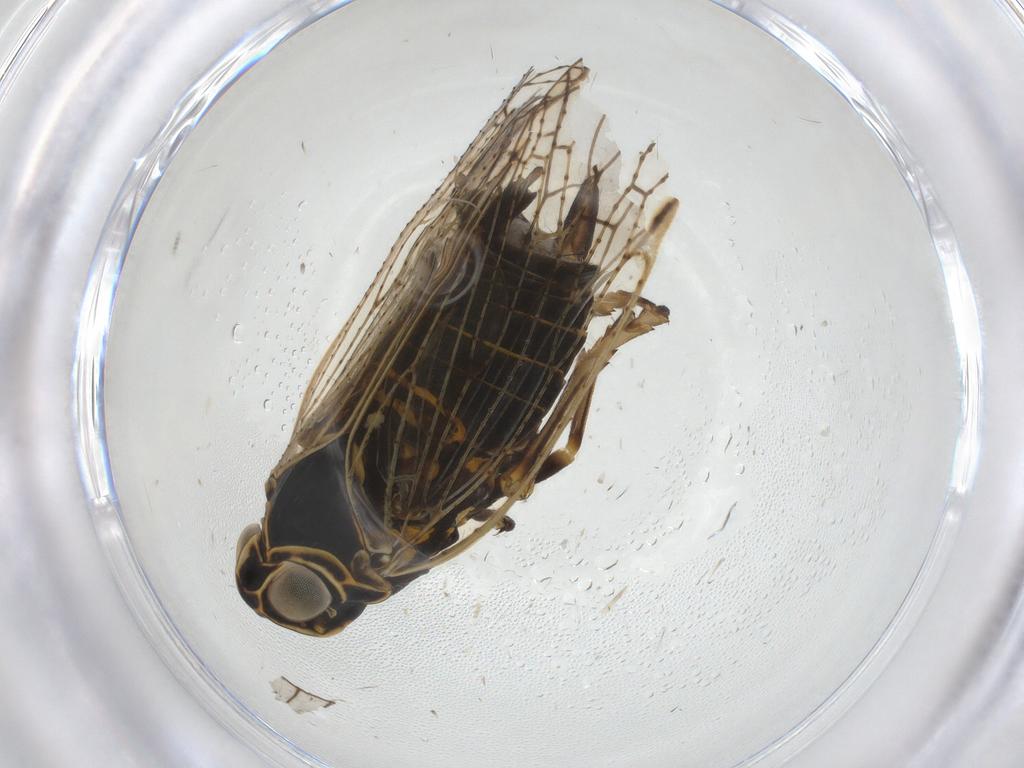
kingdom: Animalia
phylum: Arthropoda
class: Insecta
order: Hemiptera
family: Cixiidae
